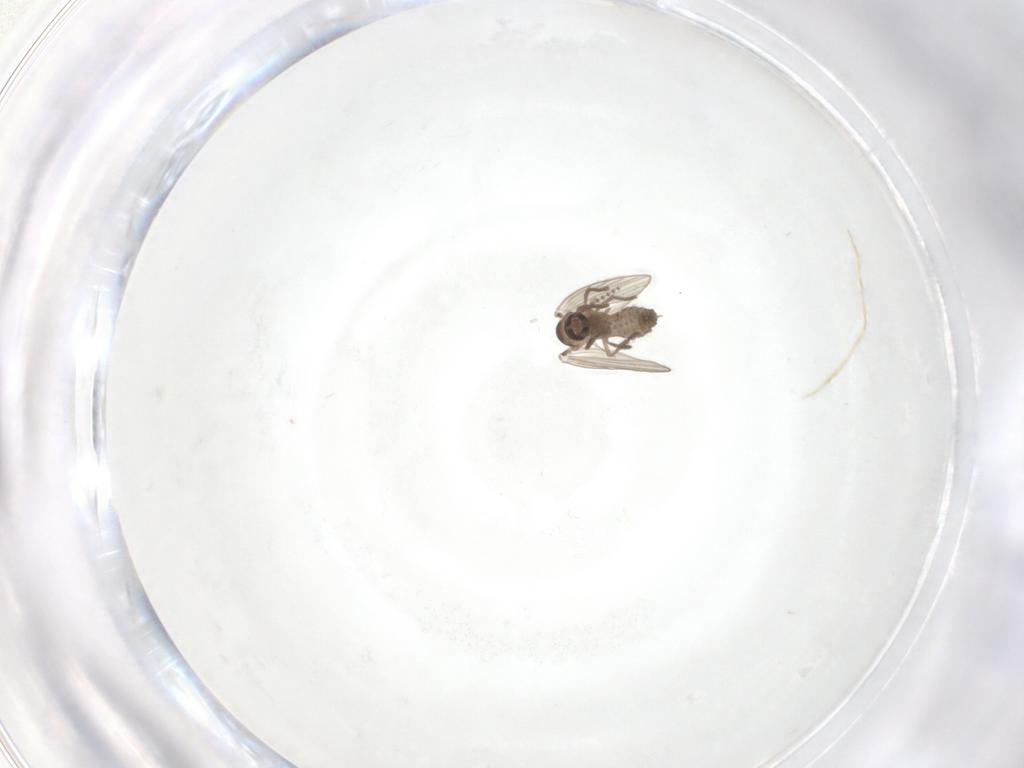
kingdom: Animalia
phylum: Arthropoda
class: Insecta
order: Diptera
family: Psychodidae
